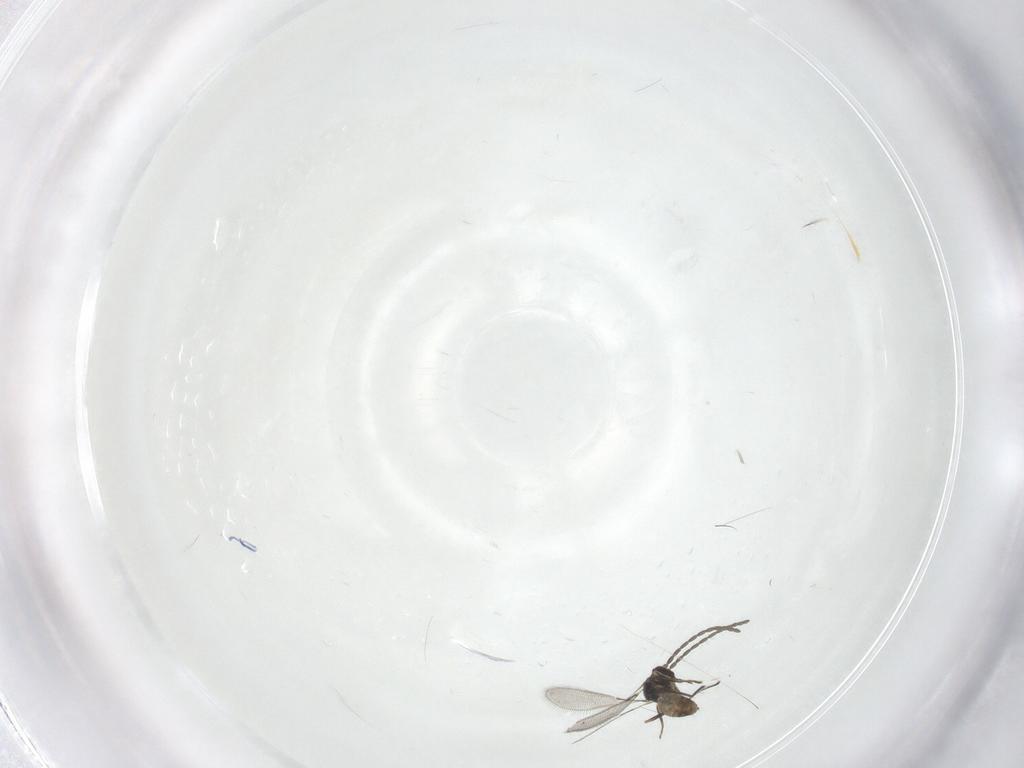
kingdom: Animalia
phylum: Arthropoda
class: Insecta
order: Hymenoptera
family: Mymaridae
